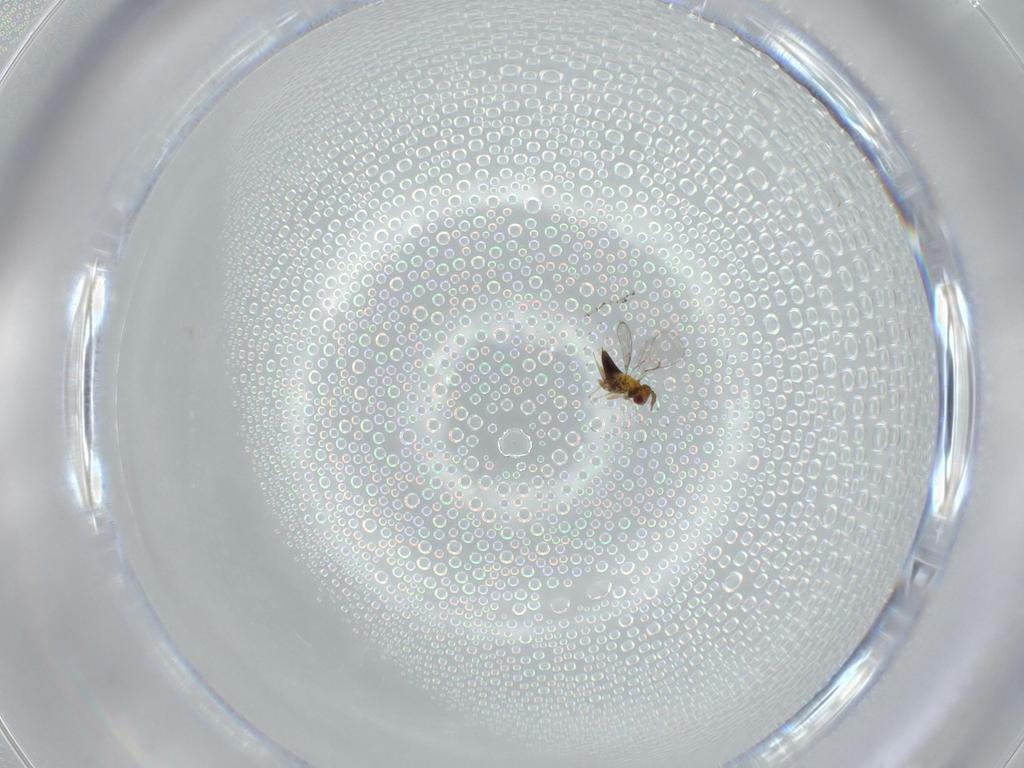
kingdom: Animalia
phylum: Arthropoda
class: Insecta
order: Hymenoptera
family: Trichogrammatidae
